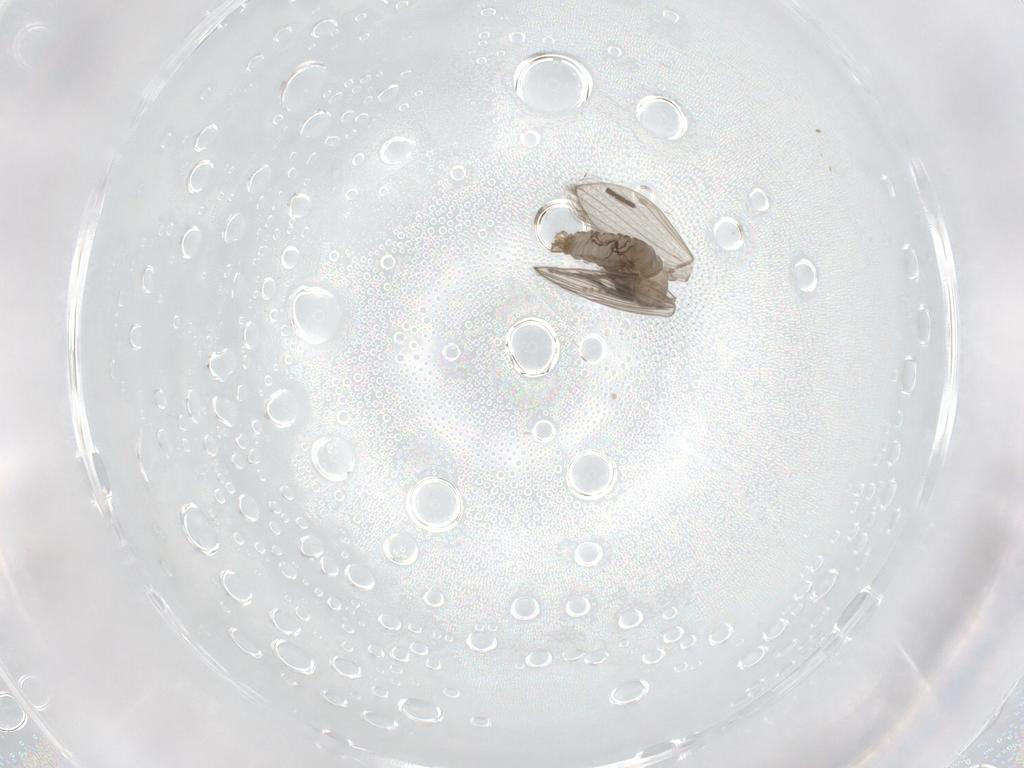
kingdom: Animalia
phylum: Arthropoda
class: Insecta
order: Diptera
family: Psychodidae
